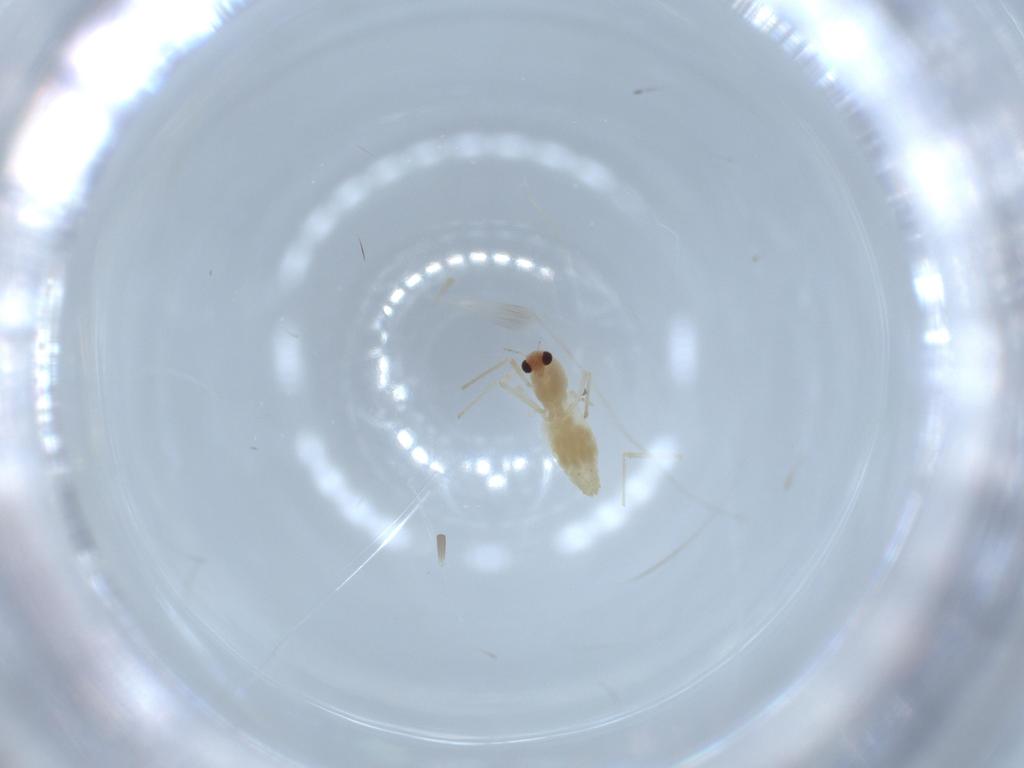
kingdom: Animalia
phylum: Arthropoda
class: Insecta
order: Diptera
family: Chironomidae
